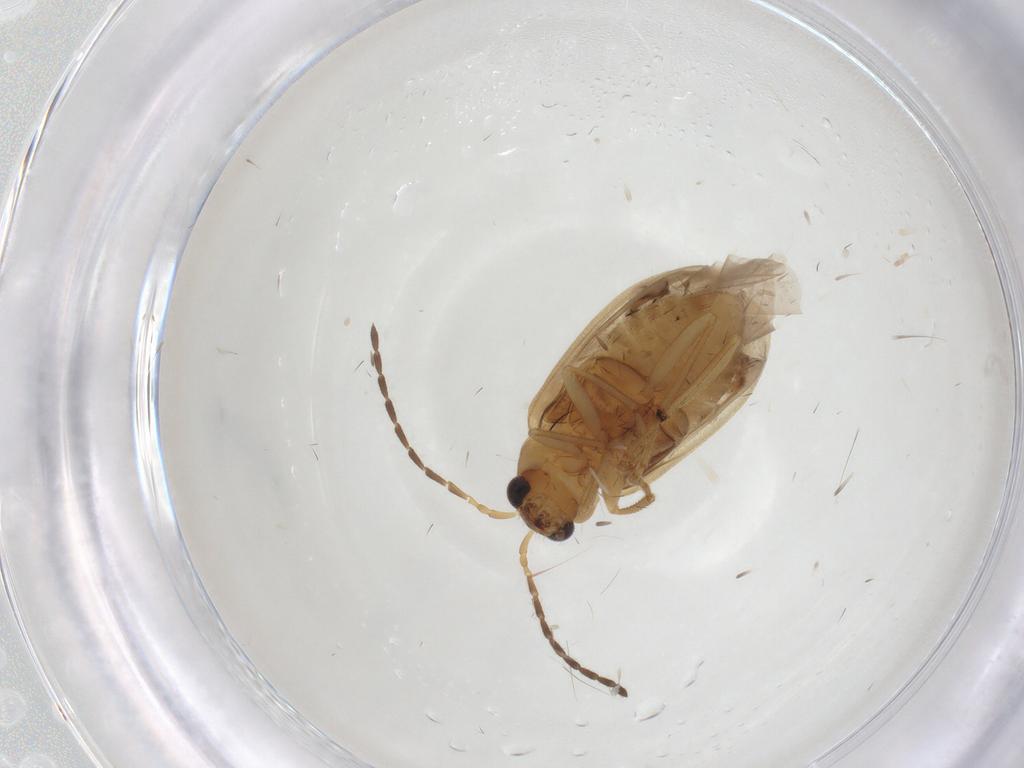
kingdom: Animalia
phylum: Arthropoda
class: Insecta
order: Coleoptera
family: Chrysomelidae
